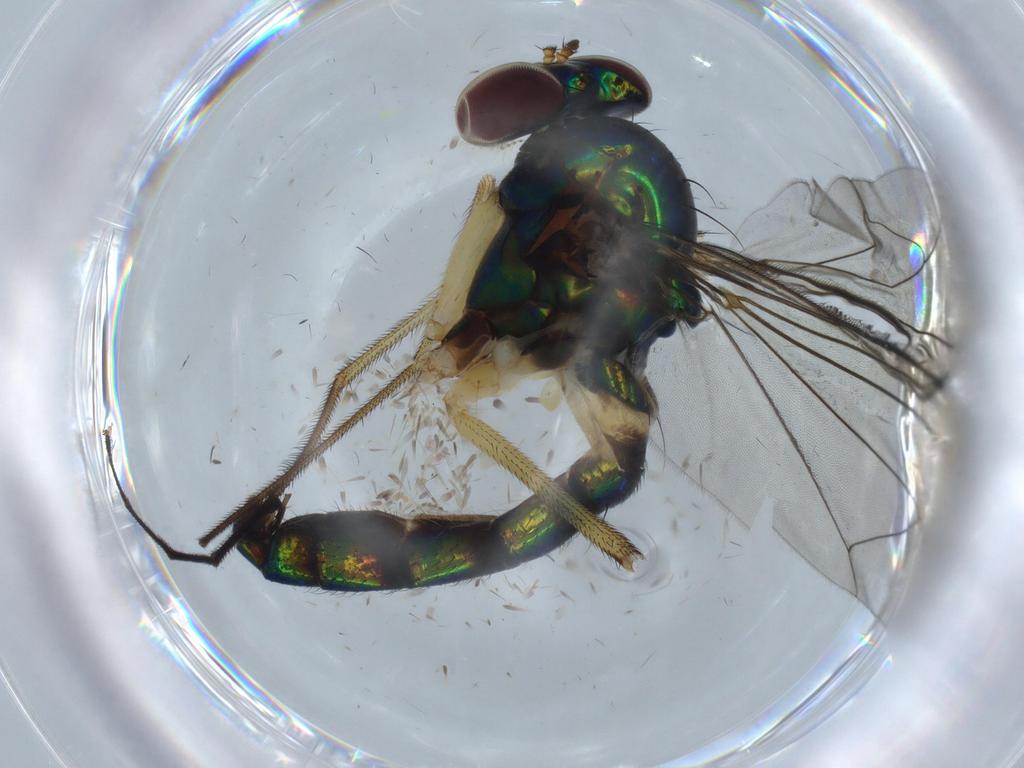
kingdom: Animalia
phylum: Arthropoda
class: Insecta
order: Diptera
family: Dolichopodidae
